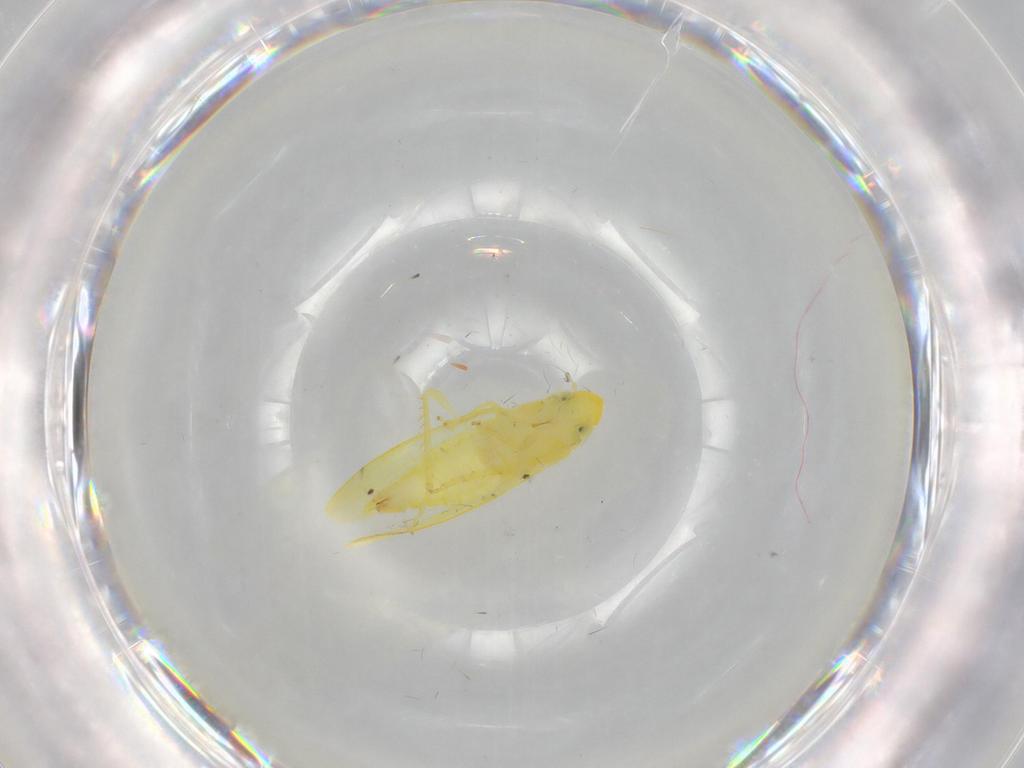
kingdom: Animalia
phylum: Arthropoda
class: Insecta
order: Hemiptera
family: Cicadellidae
